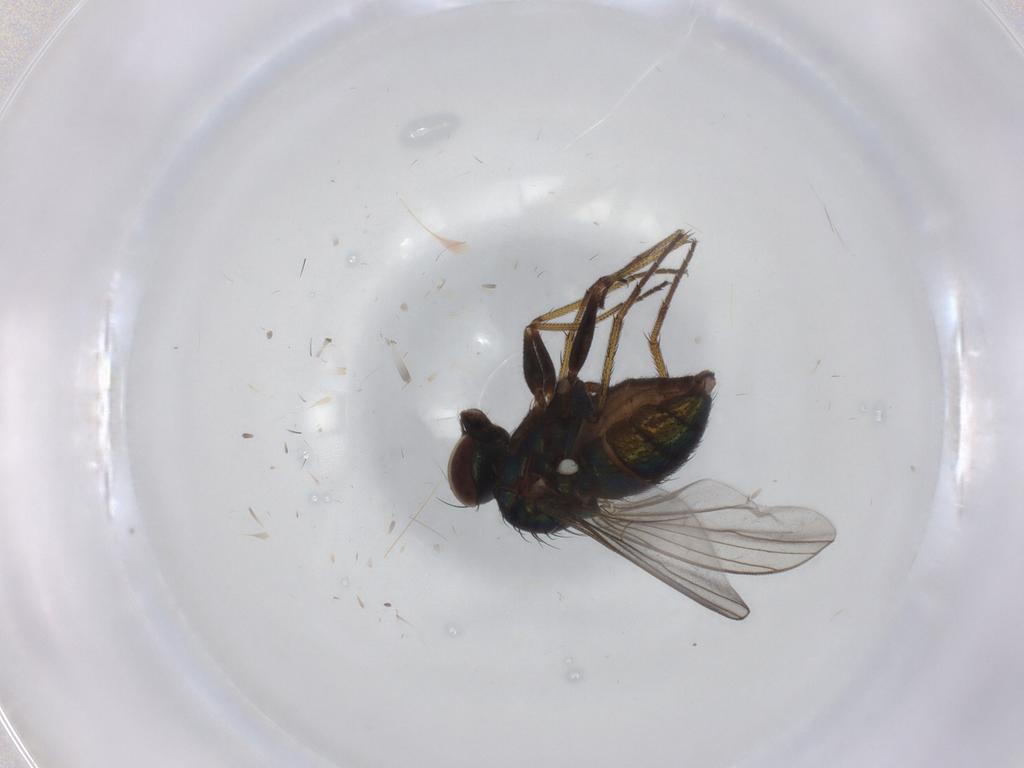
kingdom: Animalia
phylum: Arthropoda
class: Insecta
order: Diptera
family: Dolichopodidae
